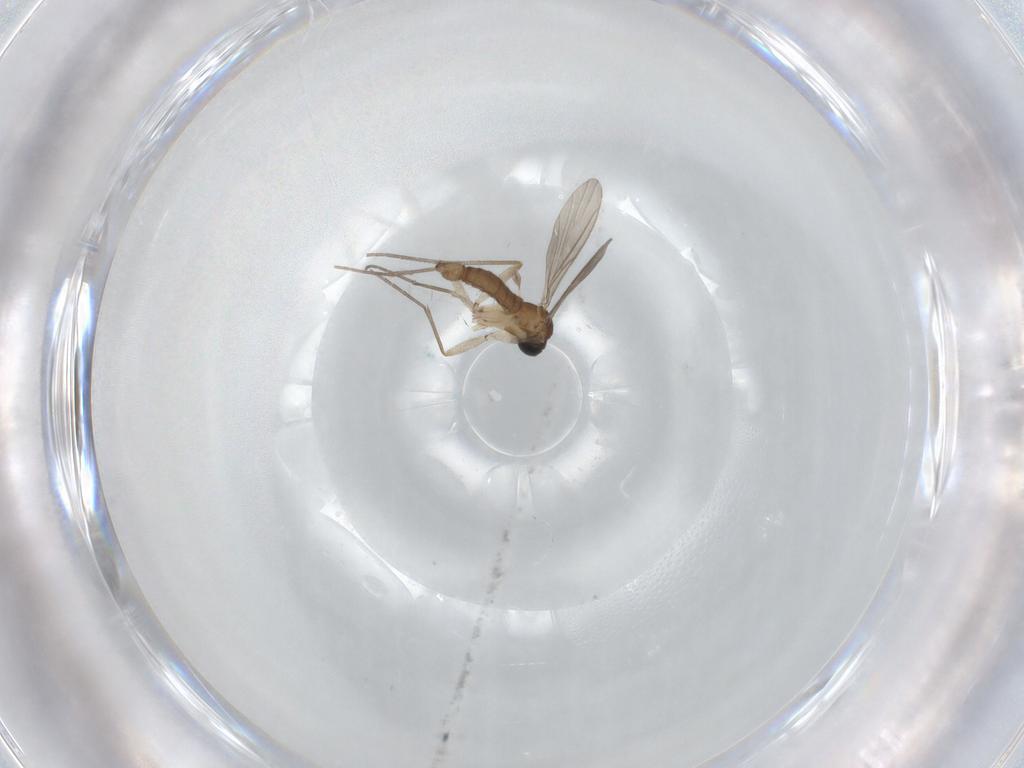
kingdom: Animalia
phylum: Arthropoda
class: Insecta
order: Diptera
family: Sciaridae
